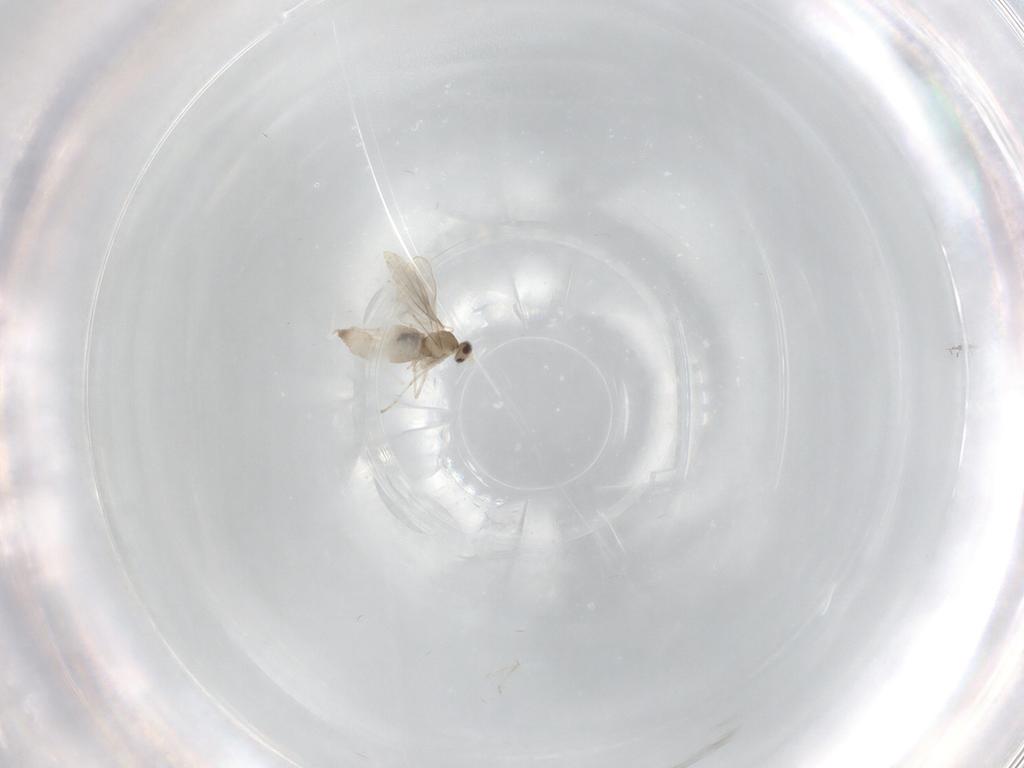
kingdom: Animalia
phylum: Arthropoda
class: Insecta
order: Diptera
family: Cecidomyiidae
